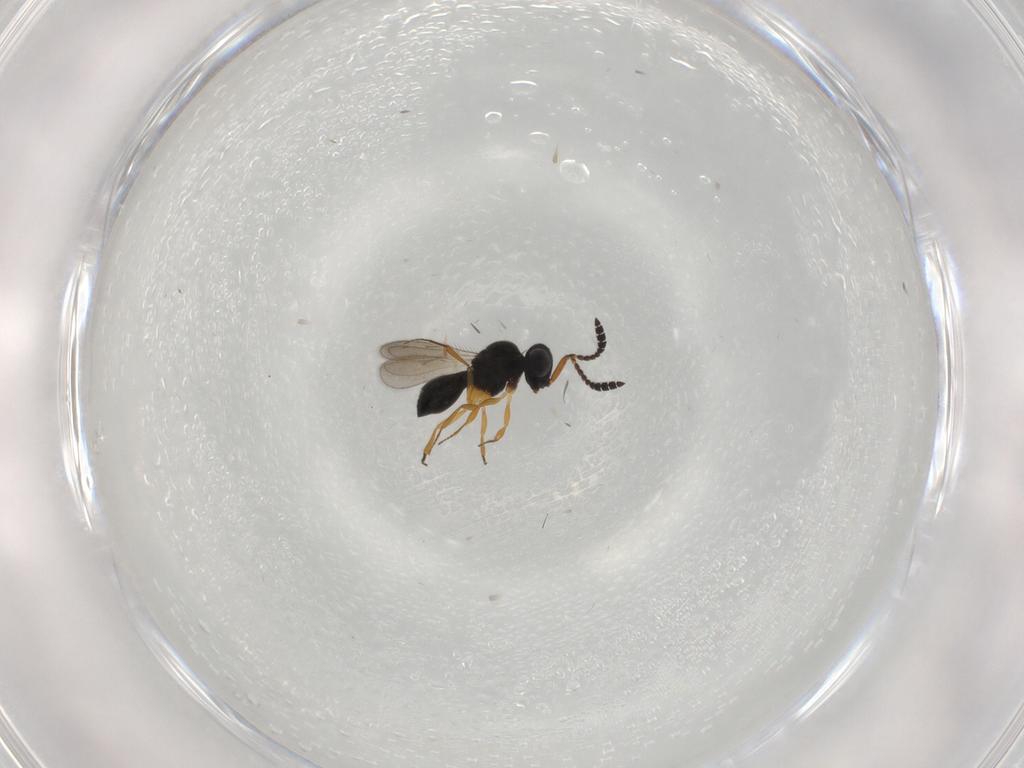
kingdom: Animalia
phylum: Arthropoda
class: Insecta
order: Hymenoptera
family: Scelionidae
